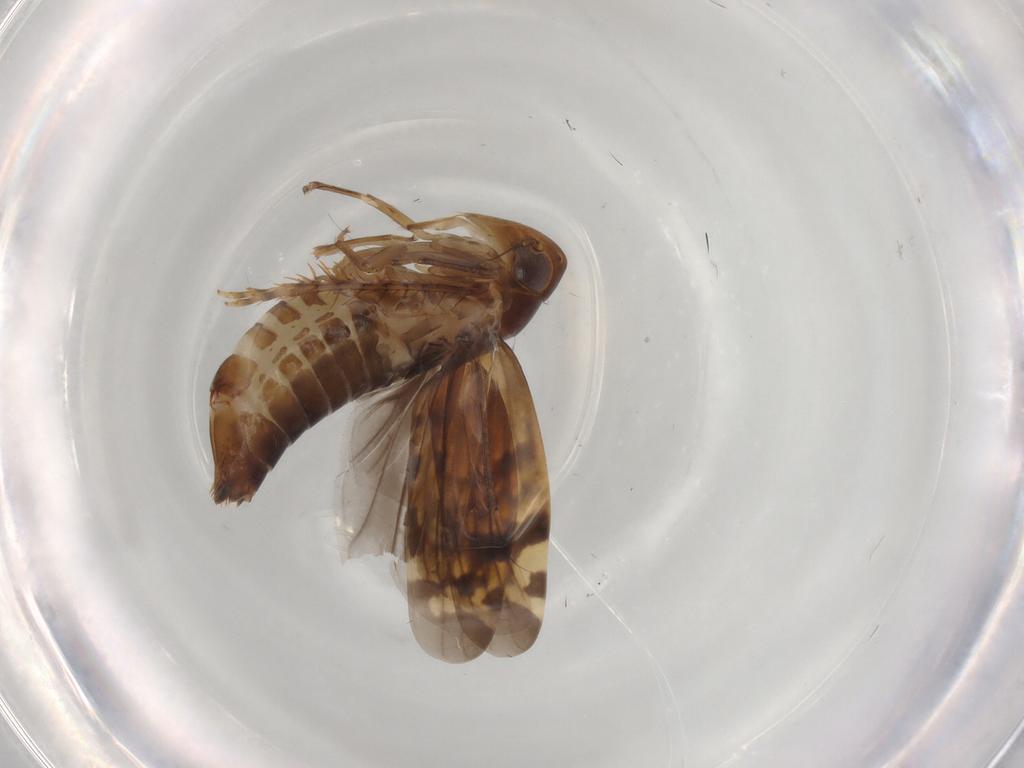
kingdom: Animalia
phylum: Arthropoda
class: Insecta
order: Hemiptera
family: Cicadellidae
